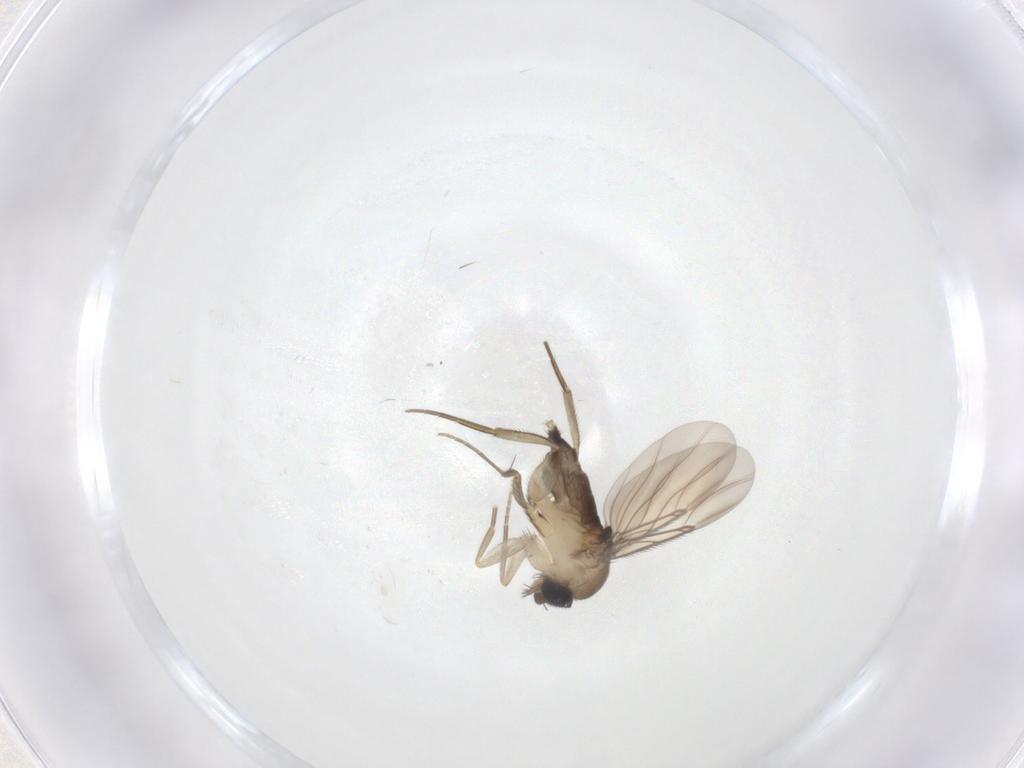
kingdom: Animalia
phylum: Arthropoda
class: Insecta
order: Diptera
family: Phoridae
